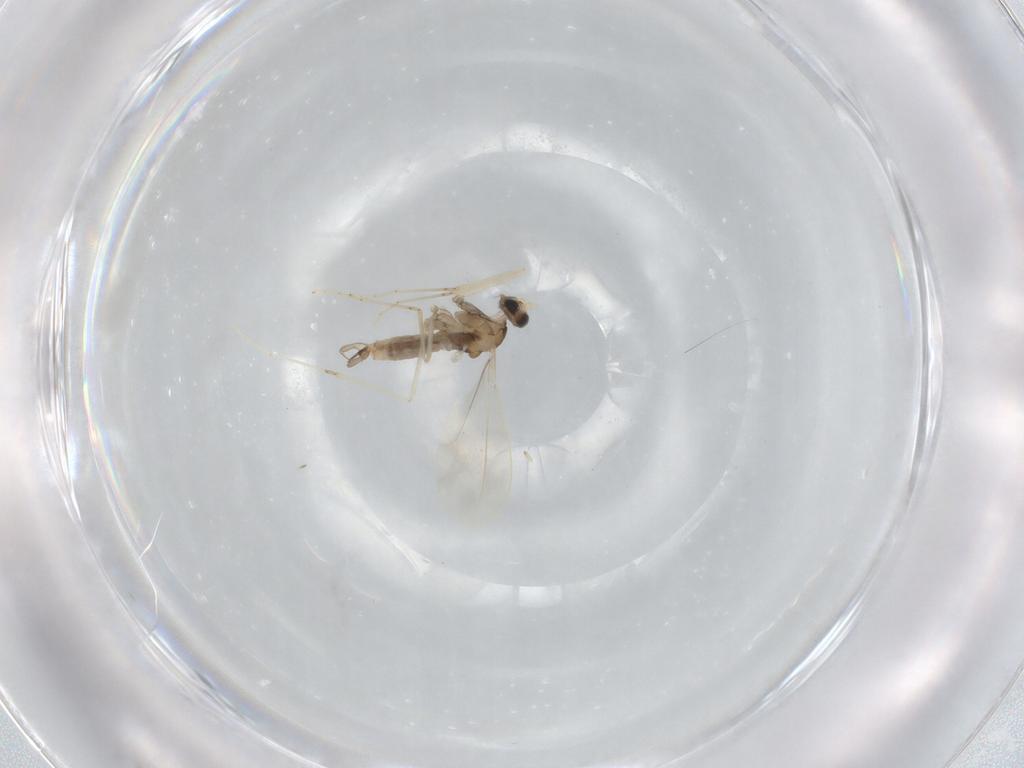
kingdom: Animalia
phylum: Arthropoda
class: Insecta
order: Diptera
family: Cecidomyiidae
